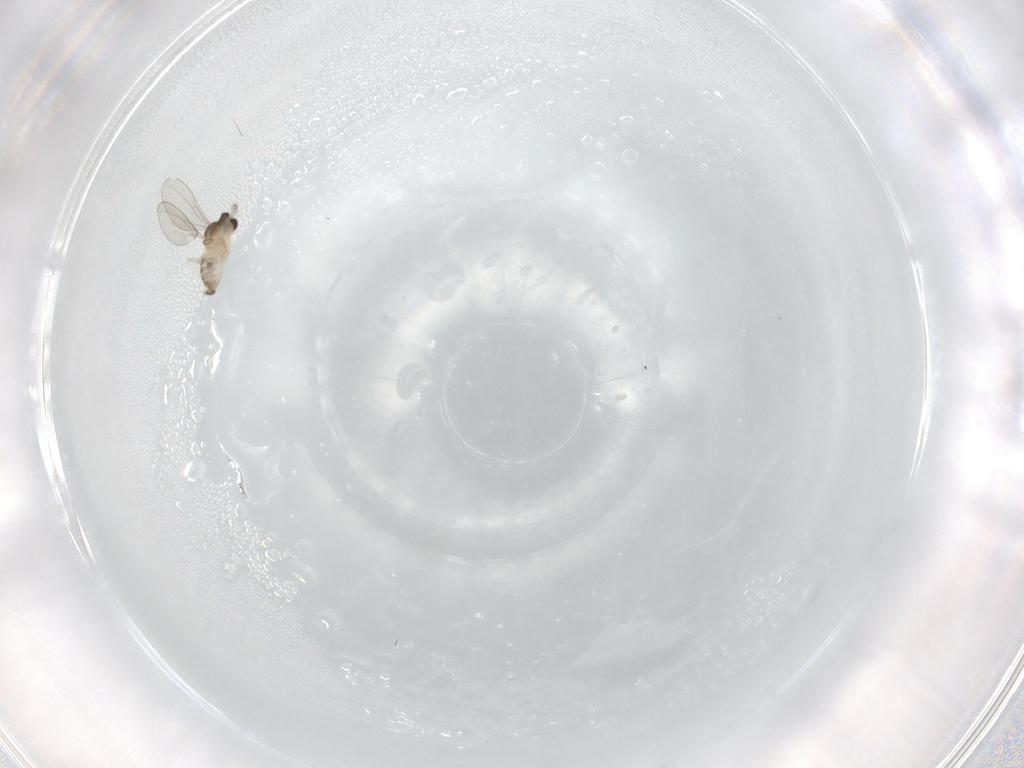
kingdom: Animalia
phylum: Arthropoda
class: Insecta
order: Diptera
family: Cecidomyiidae
